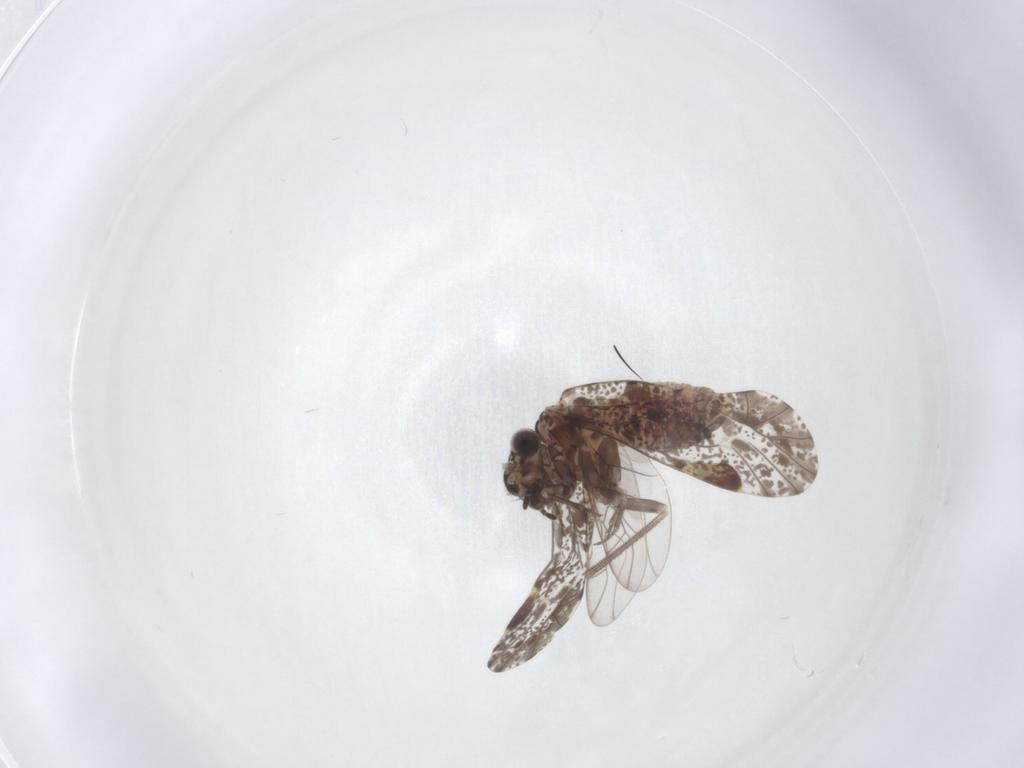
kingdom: Animalia
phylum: Arthropoda
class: Insecta
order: Psocodea
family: Psocidae
